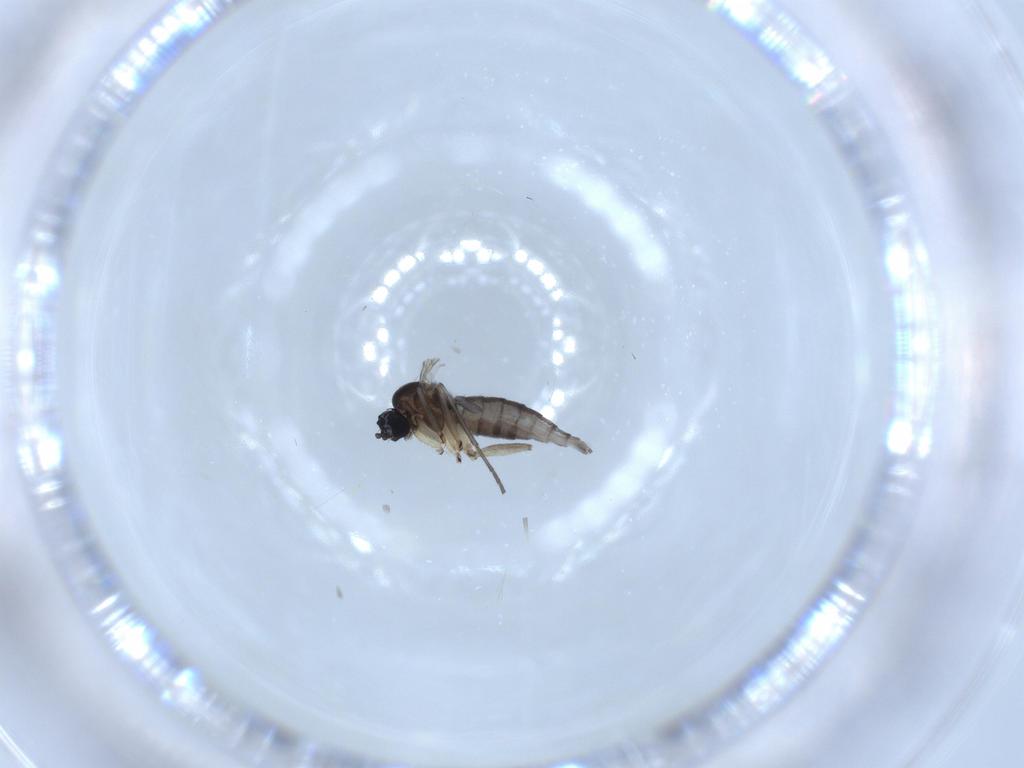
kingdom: Animalia
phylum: Arthropoda
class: Insecta
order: Diptera
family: Sciaridae
